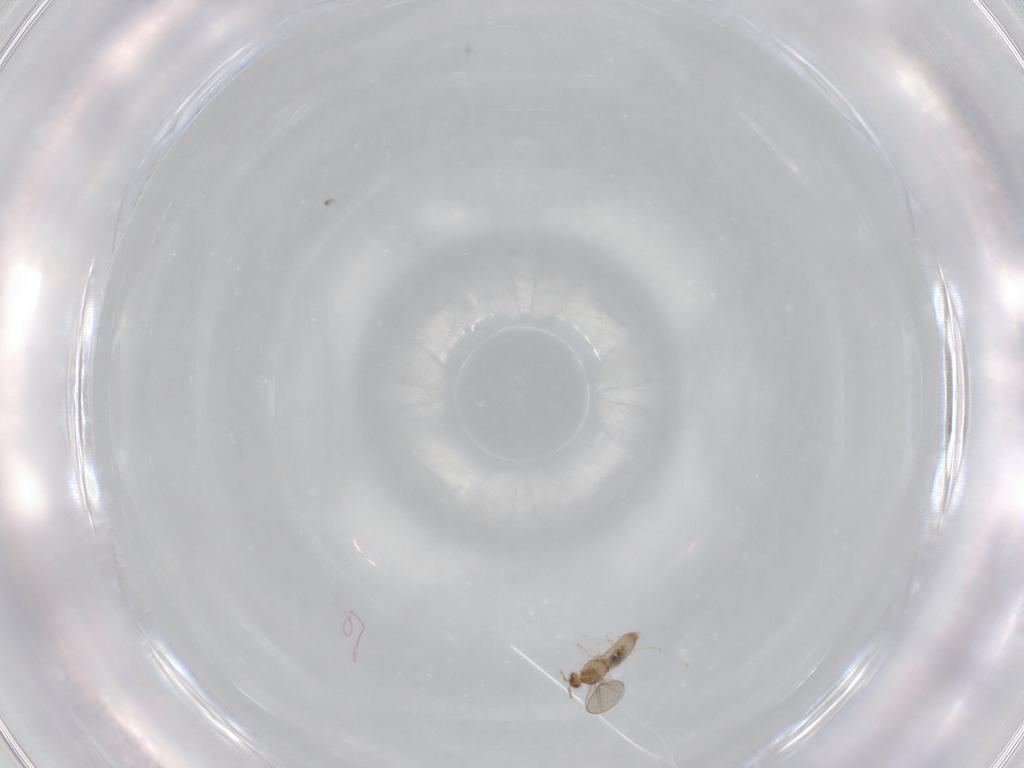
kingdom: Animalia
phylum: Arthropoda
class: Insecta
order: Diptera
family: Cecidomyiidae
